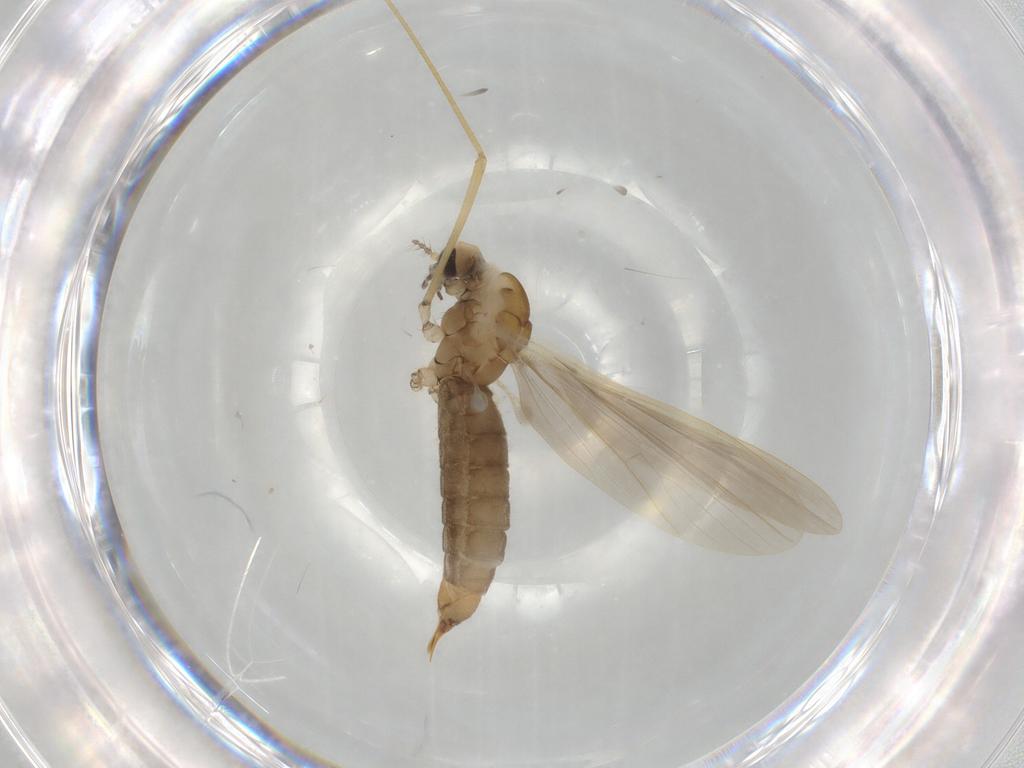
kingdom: Animalia
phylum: Arthropoda
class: Insecta
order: Diptera
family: Limoniidae
